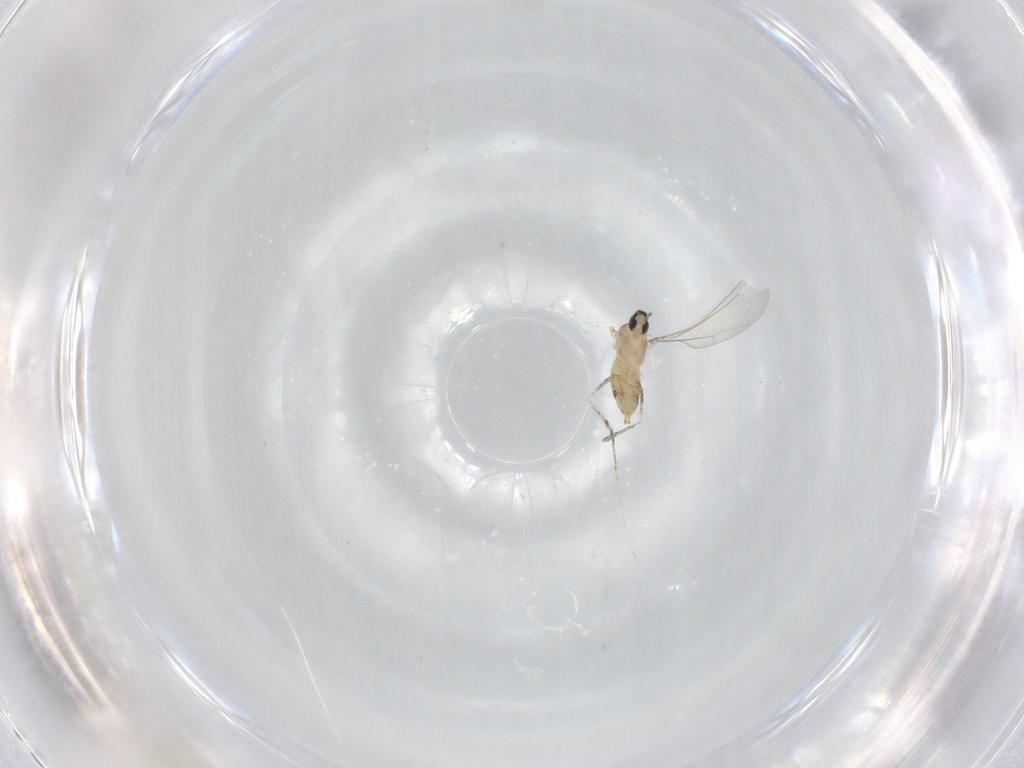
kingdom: Animalia
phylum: Arthropoda
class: Insecta
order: Diptera
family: Cecidomyiidae
